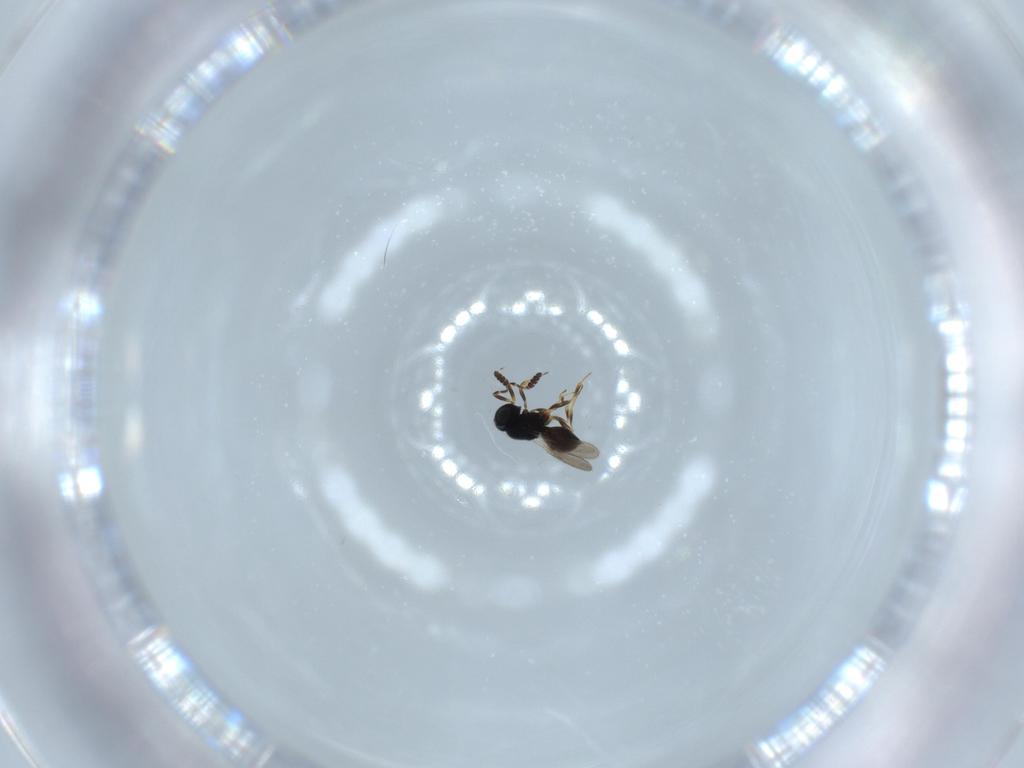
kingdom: Animalia
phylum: Arthropoda
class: Insecta
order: Hymenoptera
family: Scelionidae
